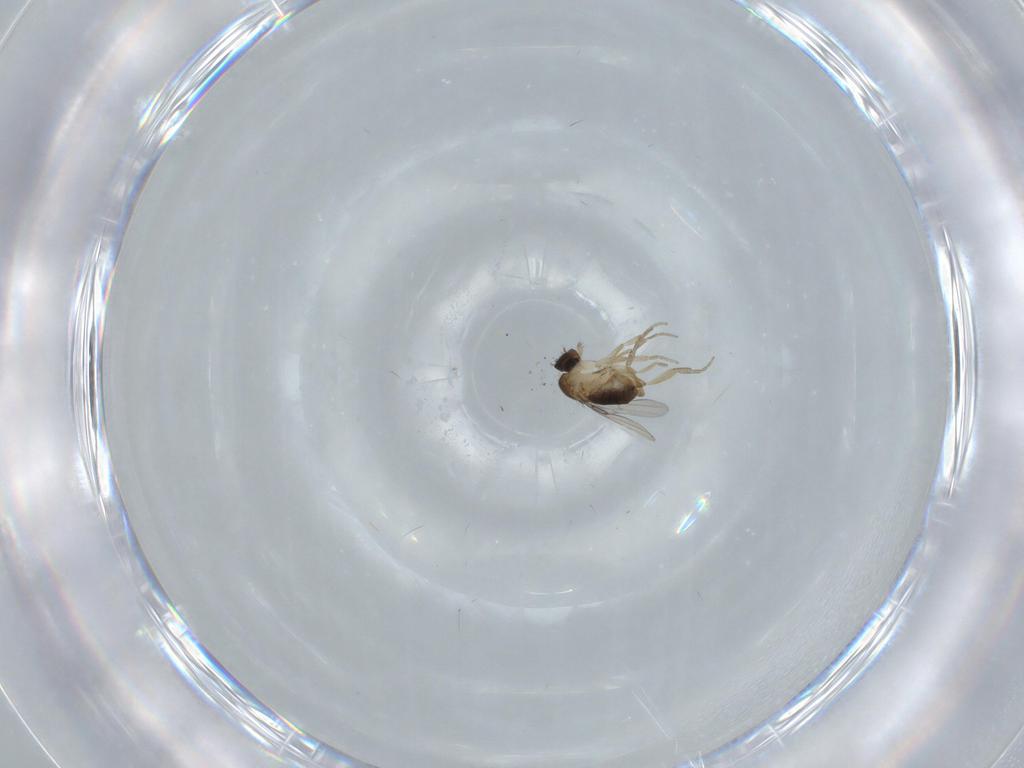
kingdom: Animalia
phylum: Arthropoda
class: Insecta
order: Diptera
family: Phoridae
